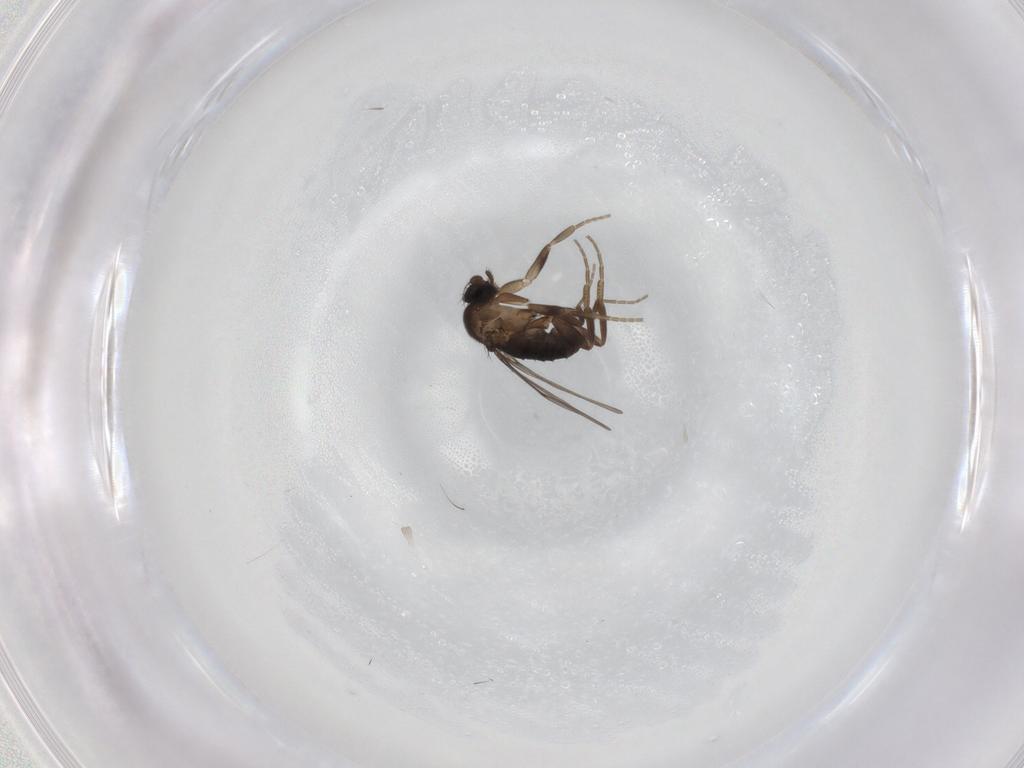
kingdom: Animalia
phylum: Arthropoda
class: Insecta
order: Diptera
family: Phoridae
